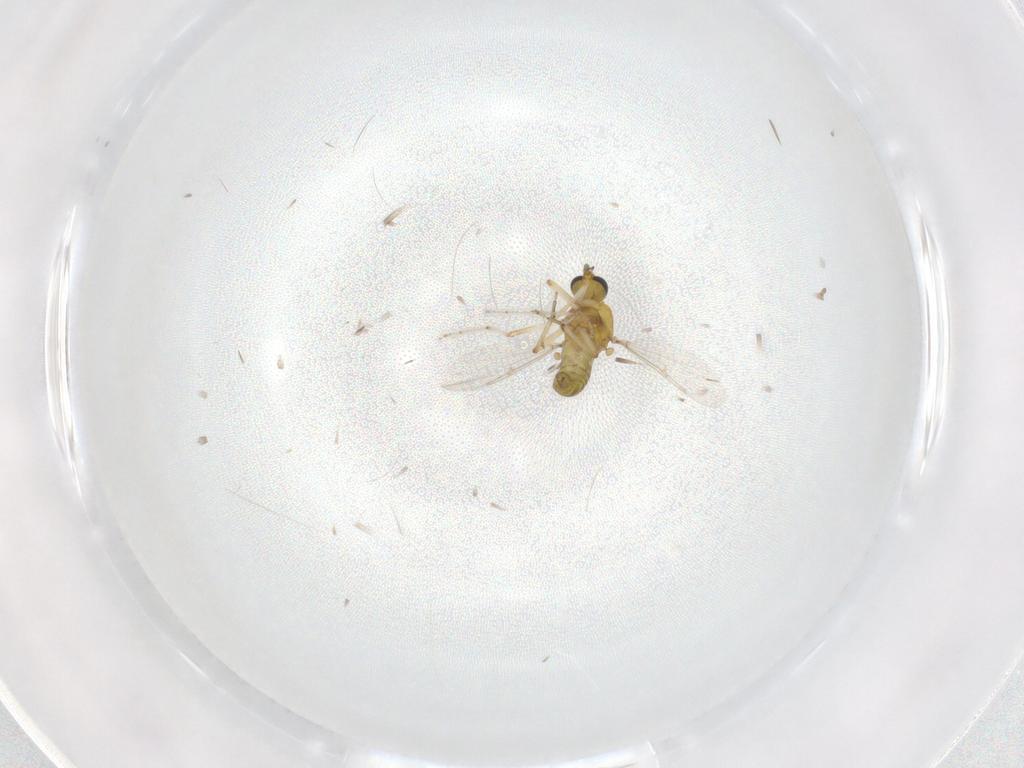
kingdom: Animalia
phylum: Arthropoda
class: Insecta
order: Diptera
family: Chironomidae
